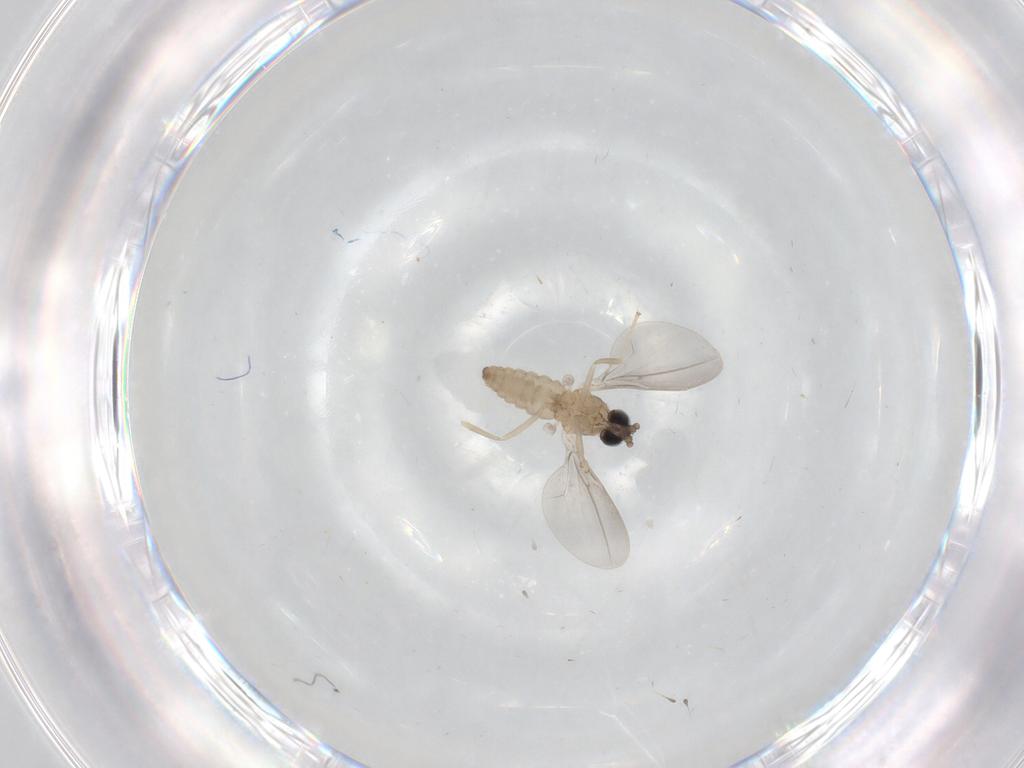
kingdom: Animalia
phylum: Arthropoda
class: Insecta
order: Diptera
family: Cecidomyiidae
